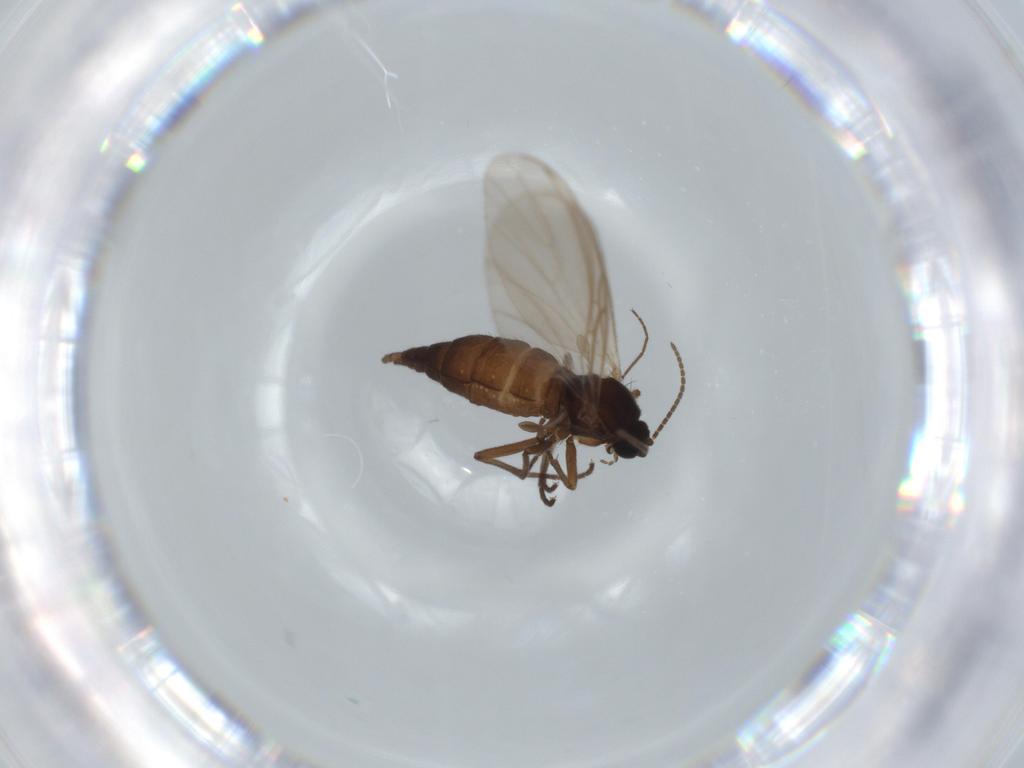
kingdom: Animalia
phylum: Arthropoda
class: Insecta
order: Diptera
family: Sciaridae
